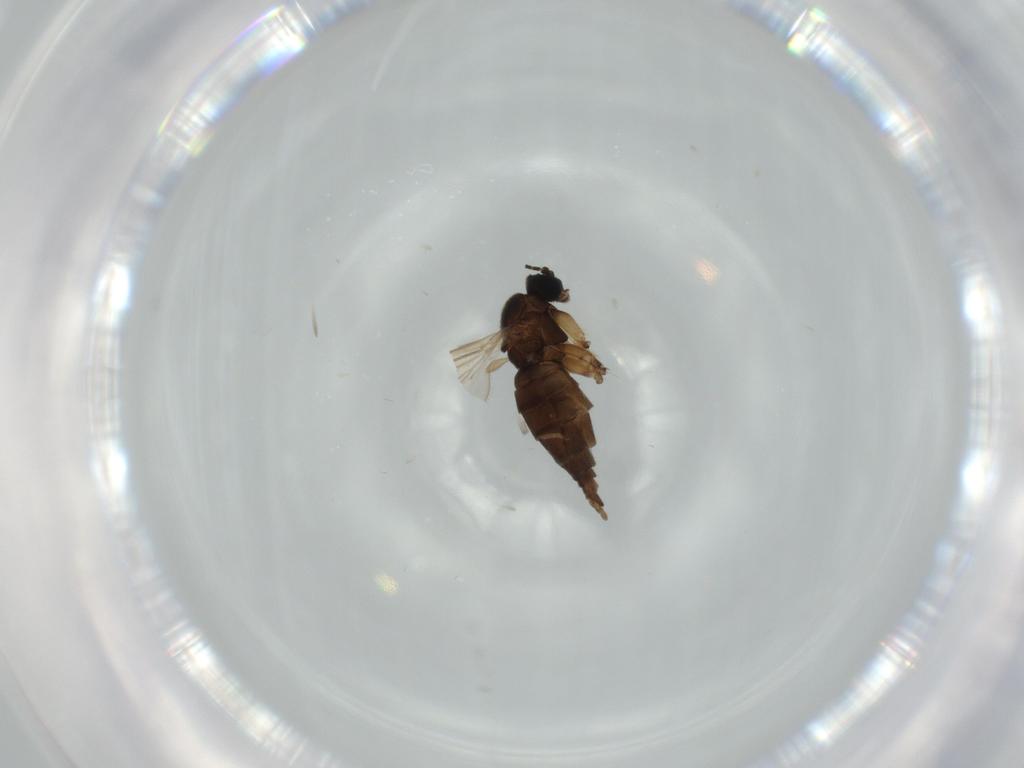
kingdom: Animalia
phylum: Arthropoda
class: Insecta
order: Diptera
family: Sciaridae
